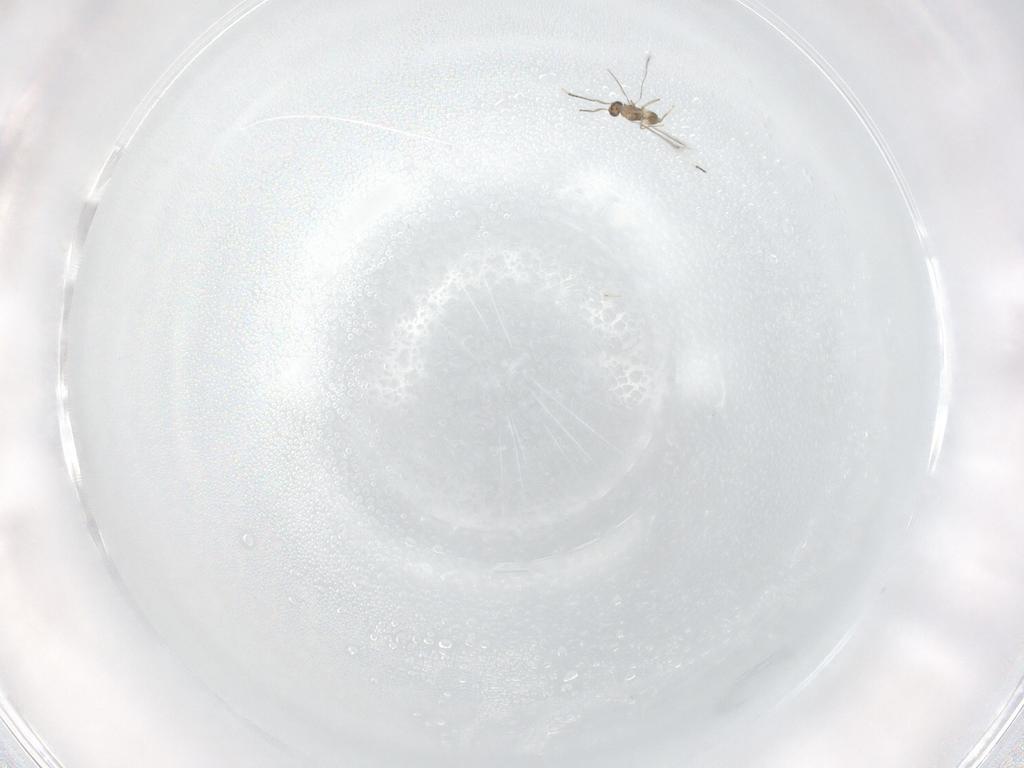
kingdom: Animalia
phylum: Arthropoda
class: Insecta
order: Hymenoptera
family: Mymaridae
